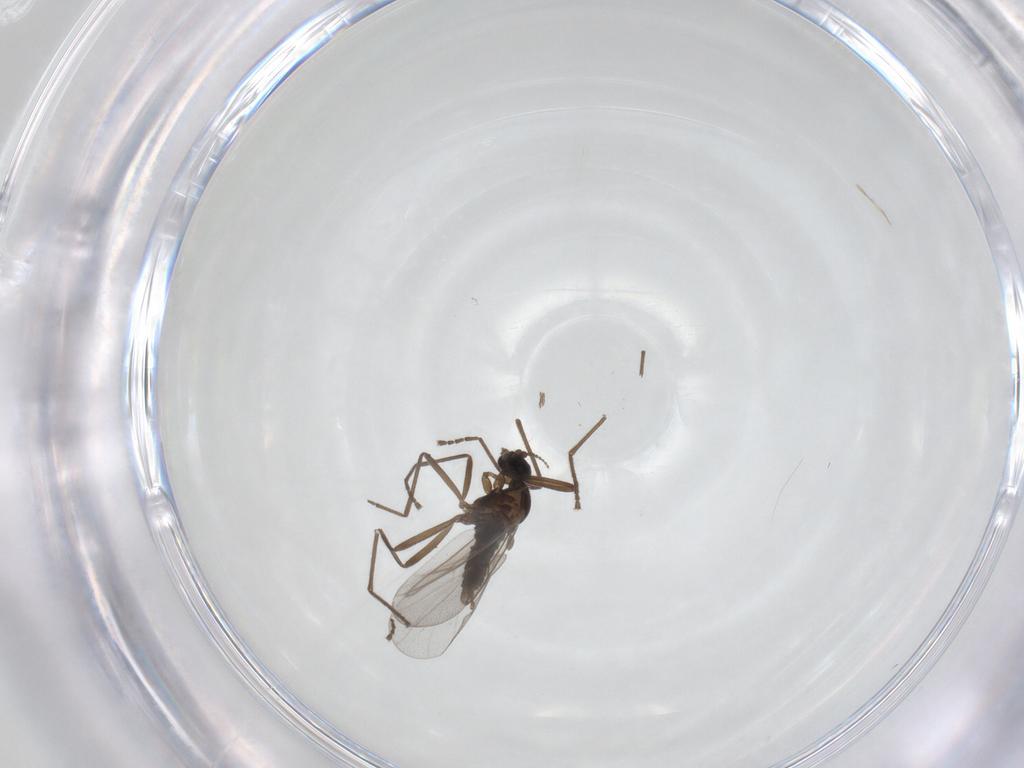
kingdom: Animalia
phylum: Arthropoda
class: Insecta
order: Diptera
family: Cecidomyiidae
